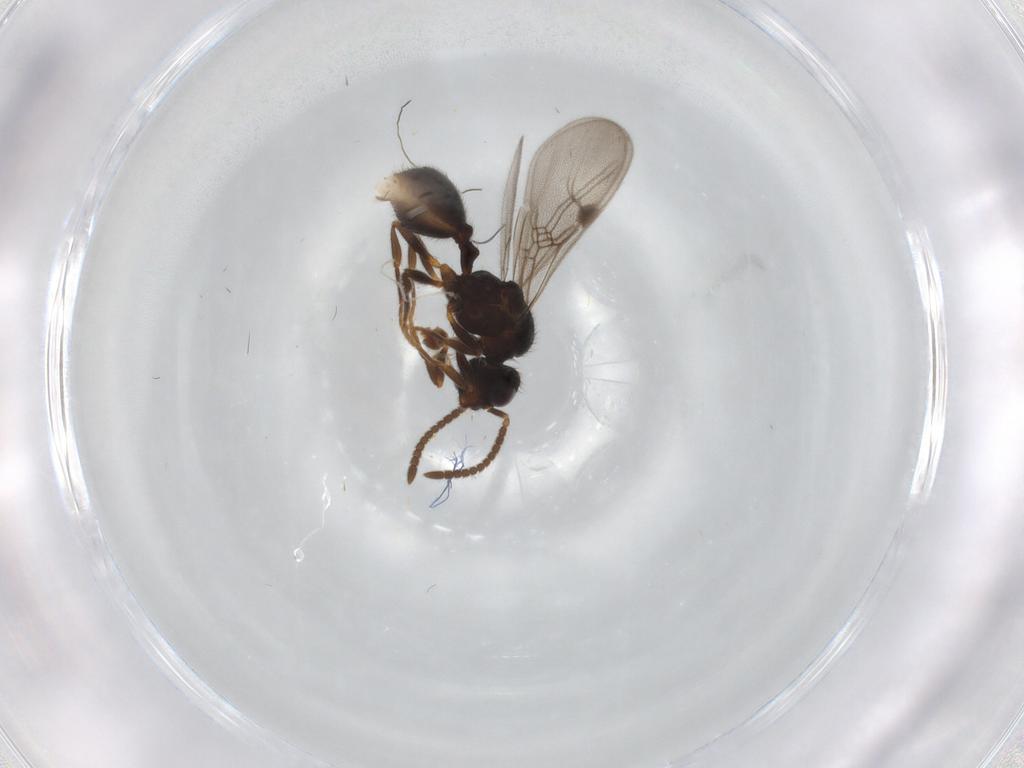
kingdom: Animalia
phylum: Arthropoda
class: Insecta
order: Hymenoptera
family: Formicidae
